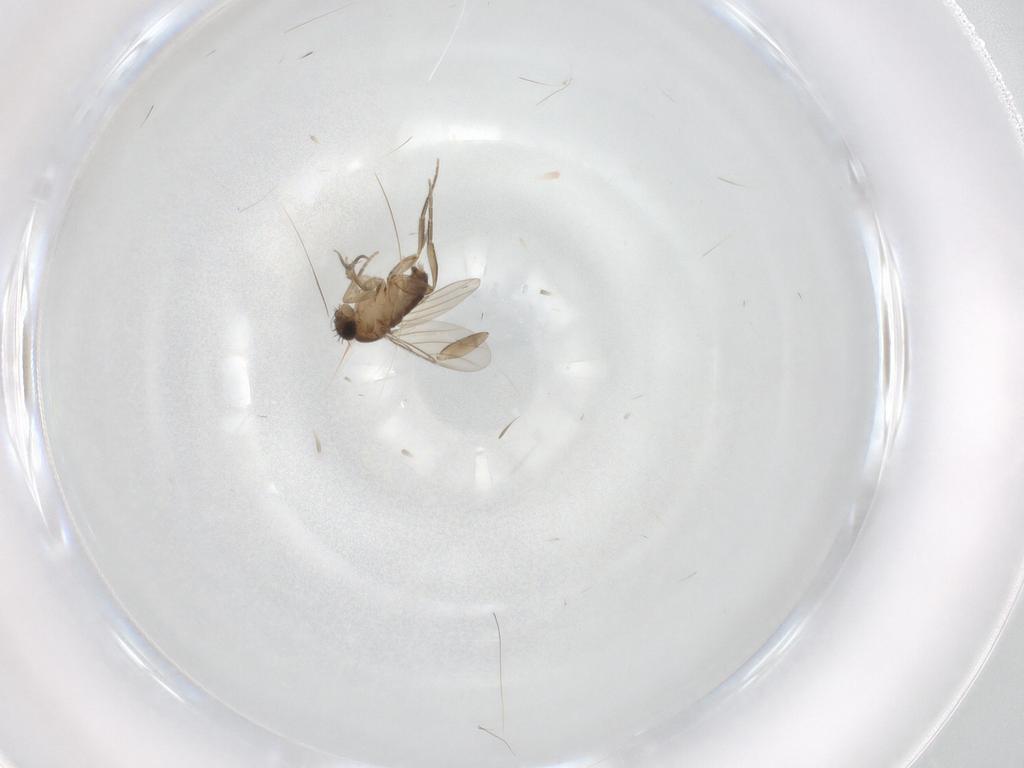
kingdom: Animalia
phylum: Arthropoda
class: Insecta
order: Diptera
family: Phoridae
